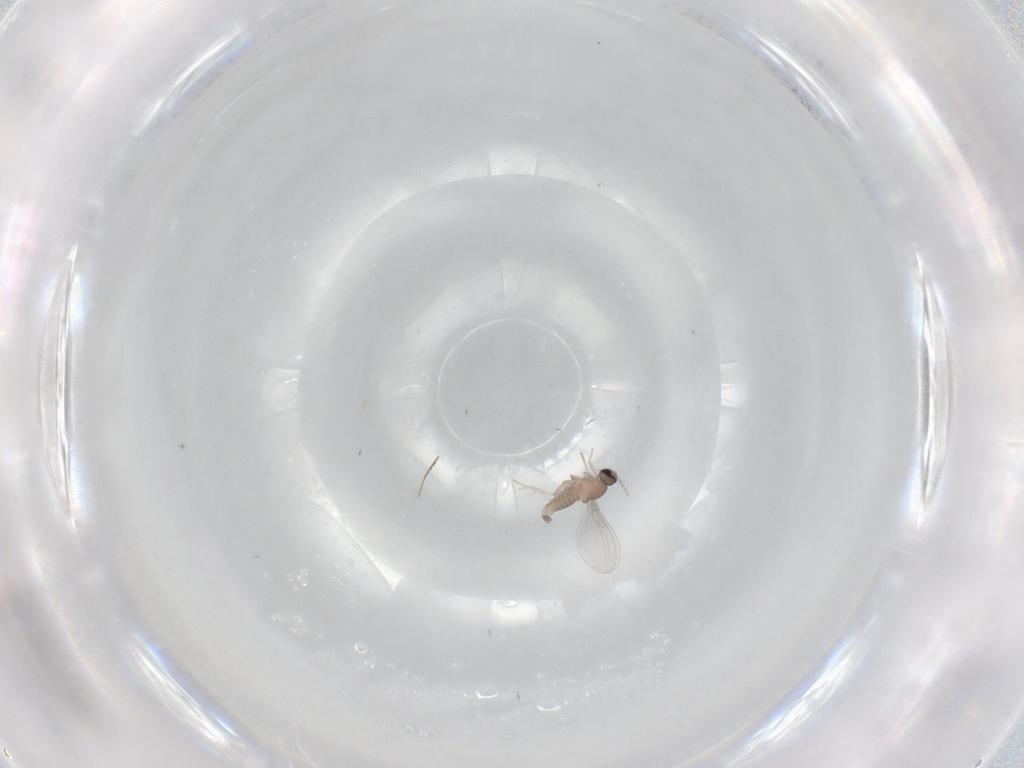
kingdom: Animalia
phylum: Arthropoda
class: Insecta
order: Diptera
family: Cecidomyiidae
